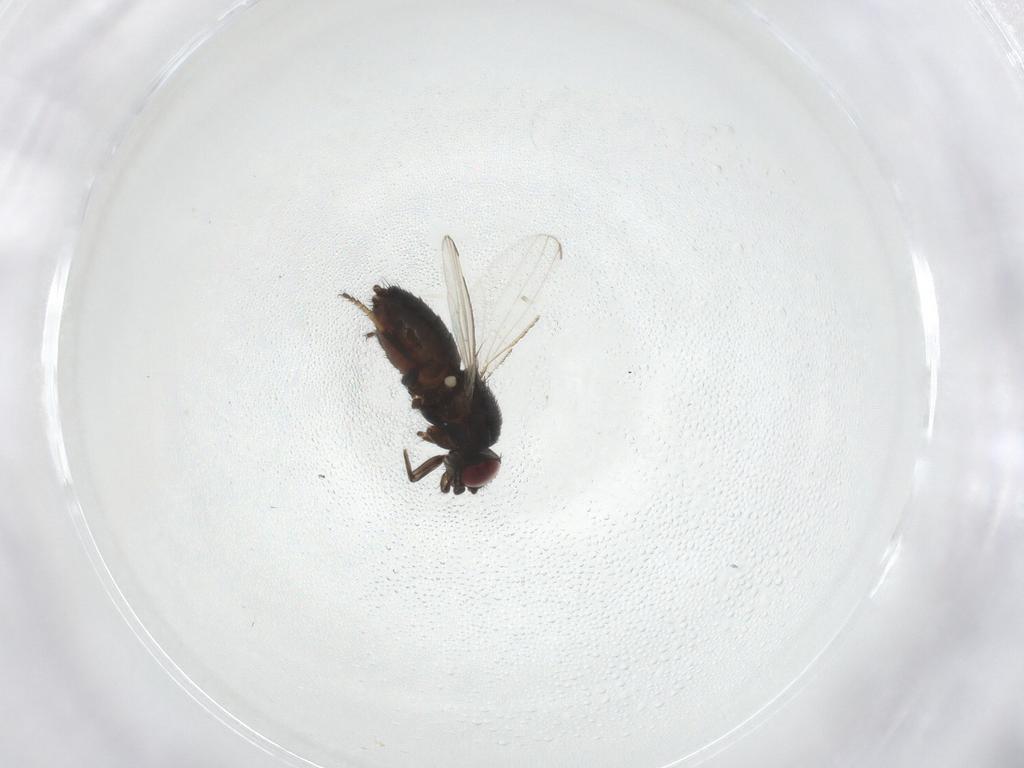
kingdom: Animalia
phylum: Arthropoda
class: Insecta
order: Diptera
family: Milichiidae
